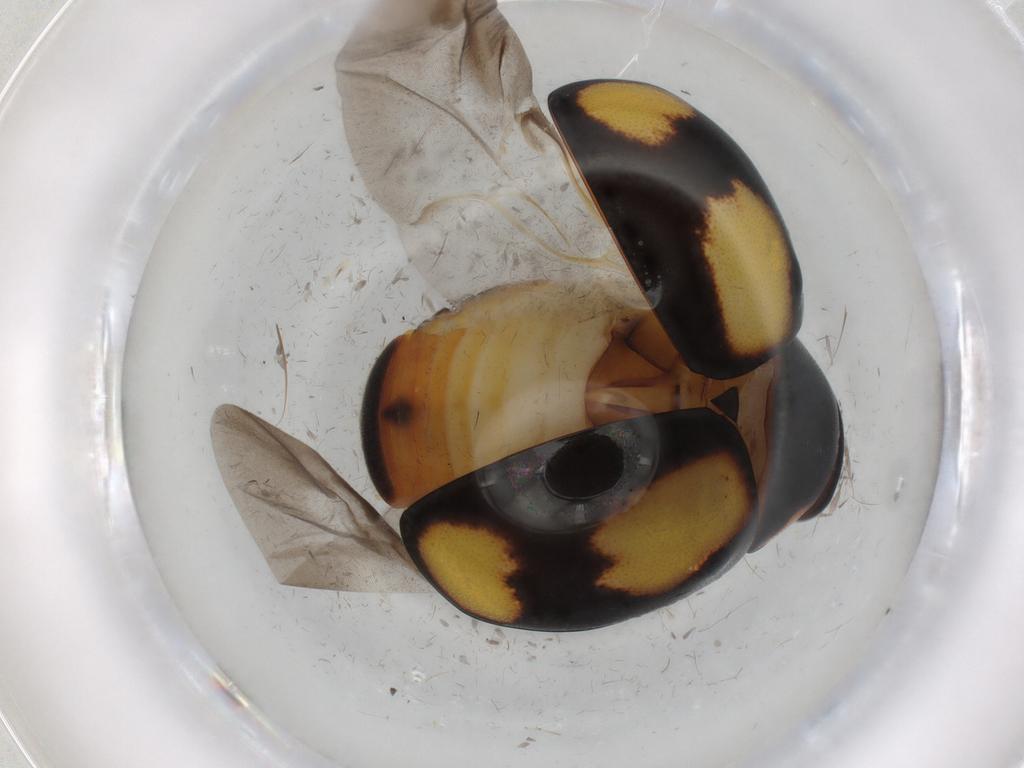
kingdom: Animalia
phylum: Arthropoda
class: Insecta
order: Coleoptera
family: Coccinellidae
